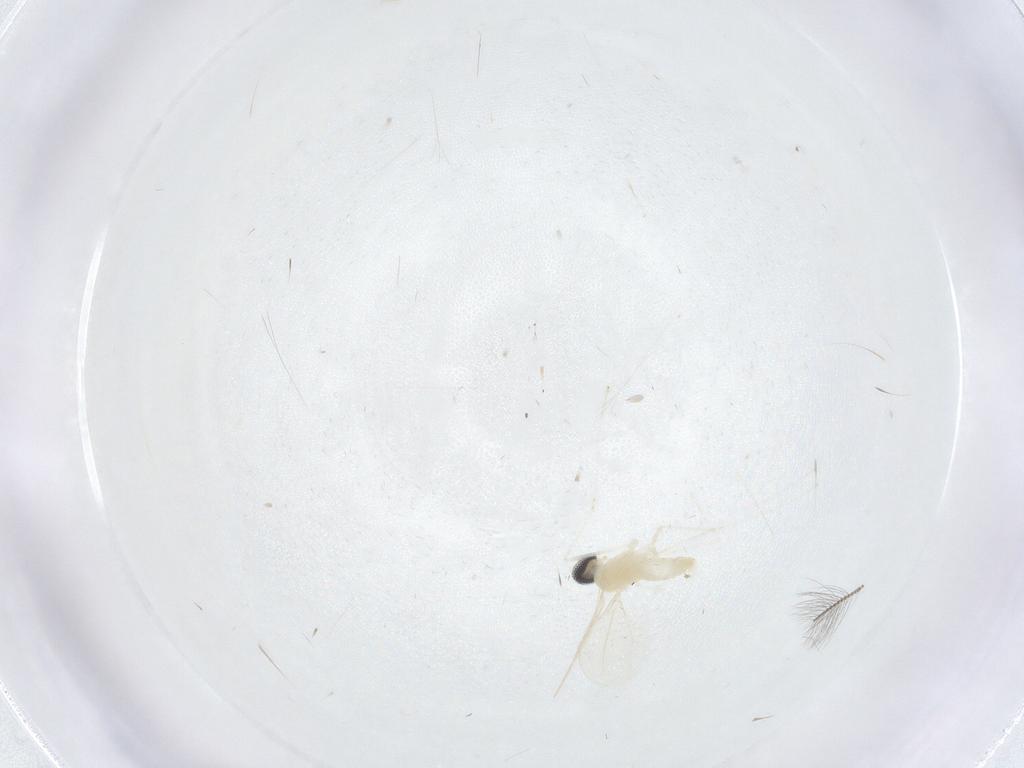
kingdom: Animalia
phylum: Arthropoda
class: Insecta
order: Diptera
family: Cecidomyiidae
